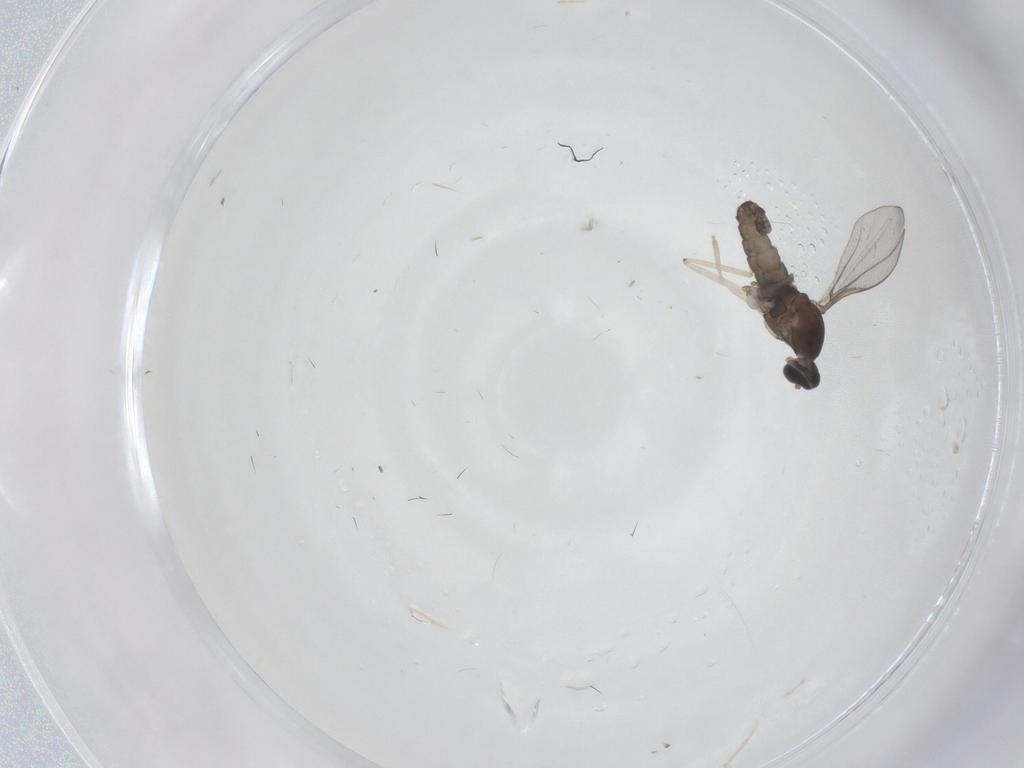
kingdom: Animalia
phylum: Arthropoda
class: Insecta
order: Diptera
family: Cecidomyiidae
